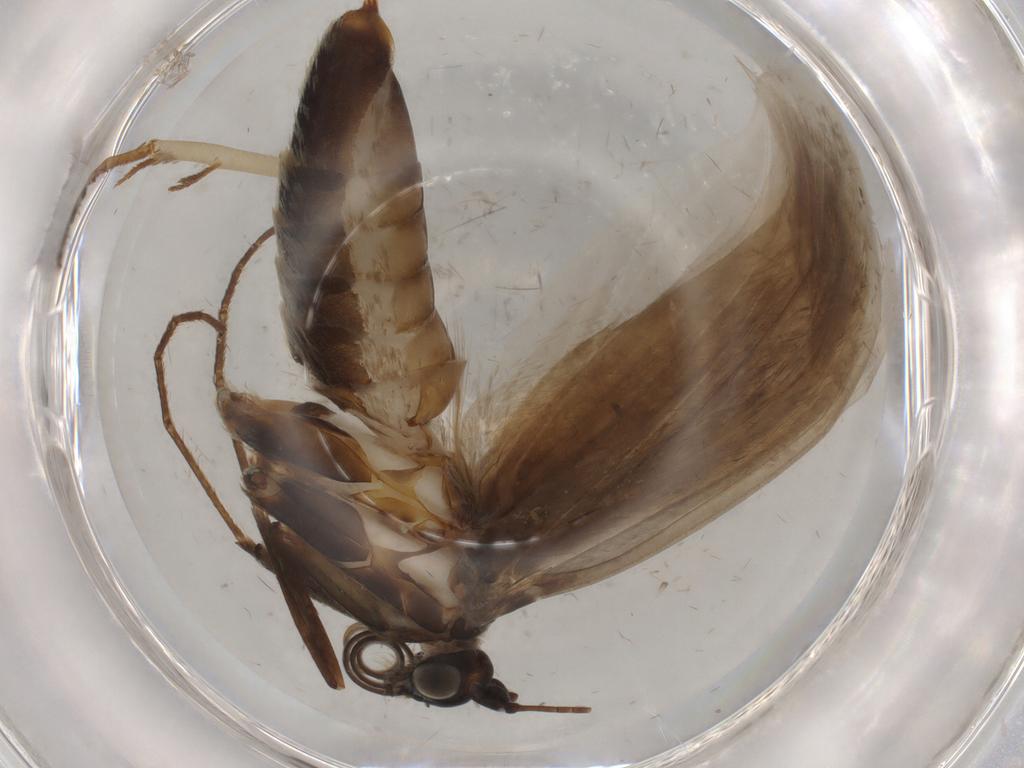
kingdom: Animalia
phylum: Arthropoda
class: Insecta
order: Lepidoptera
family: Adelidae
